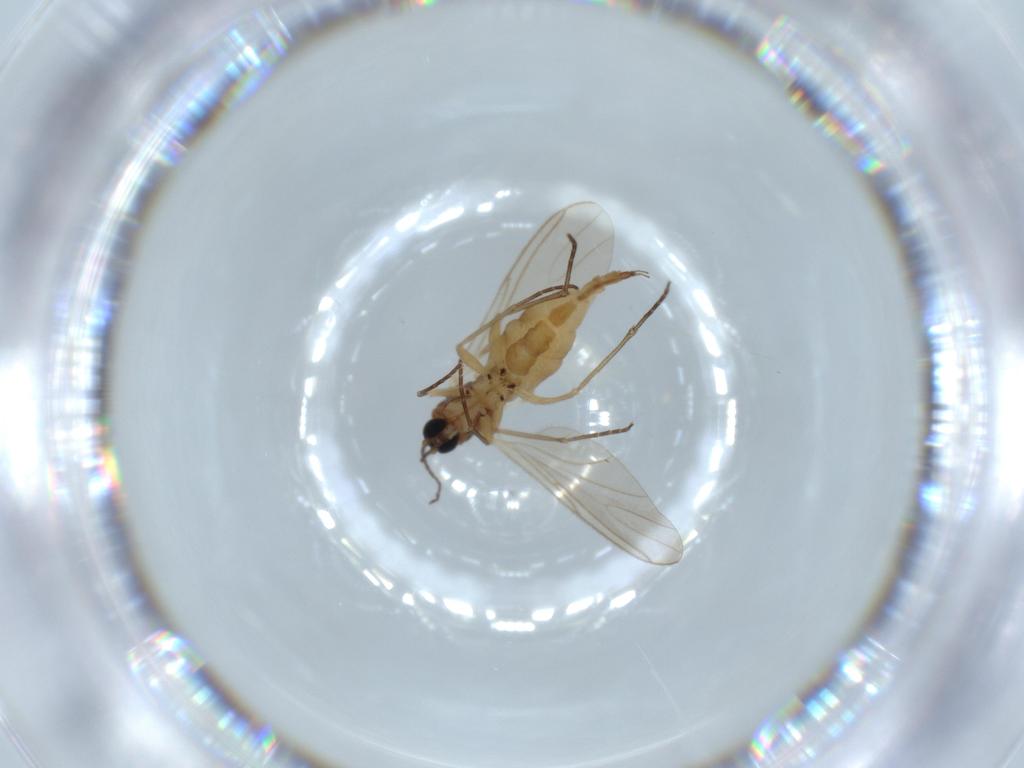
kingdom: Animalia
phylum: Arthropoda
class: Insecta
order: Diptera
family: Sciaridae
